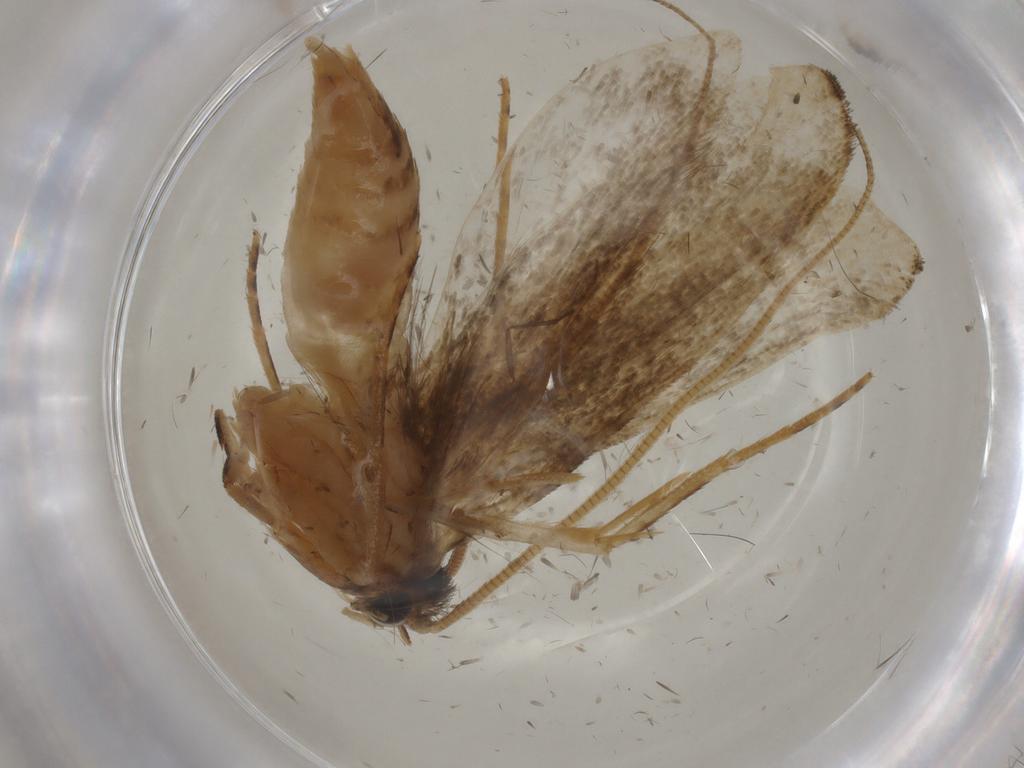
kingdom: Animalia
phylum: Arthropoda
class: Insecta
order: Lepidoptera
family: Tineidae
